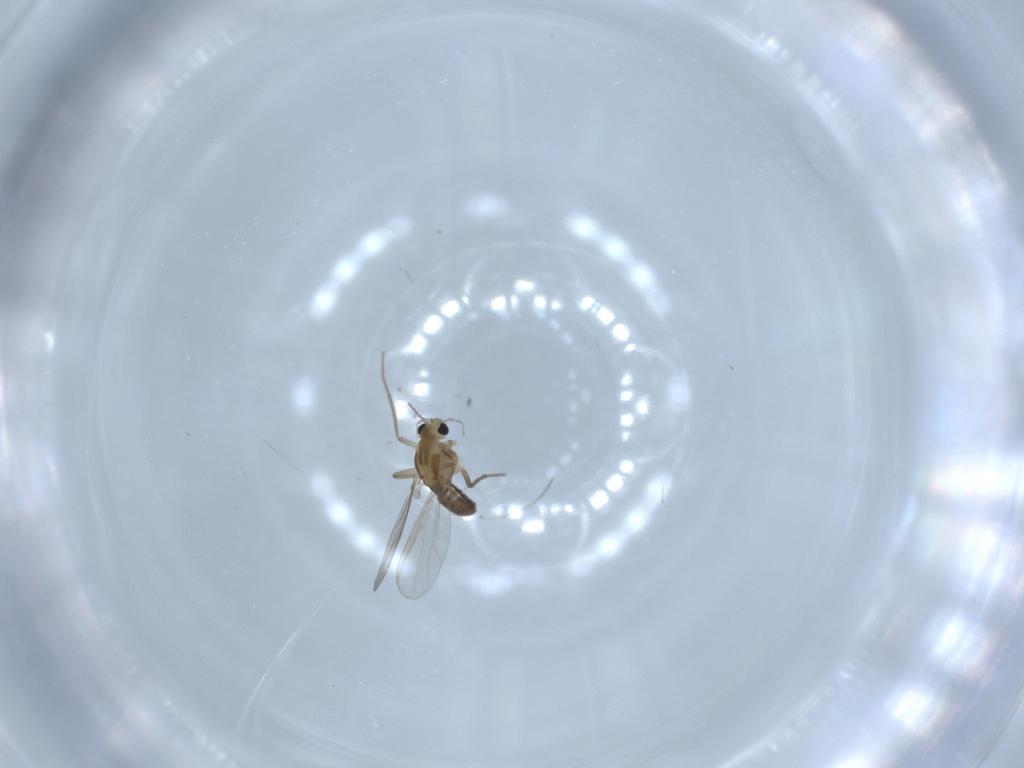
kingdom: Animalia
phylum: Arthropoda
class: Insecta
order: Diptera
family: Chironomidae
